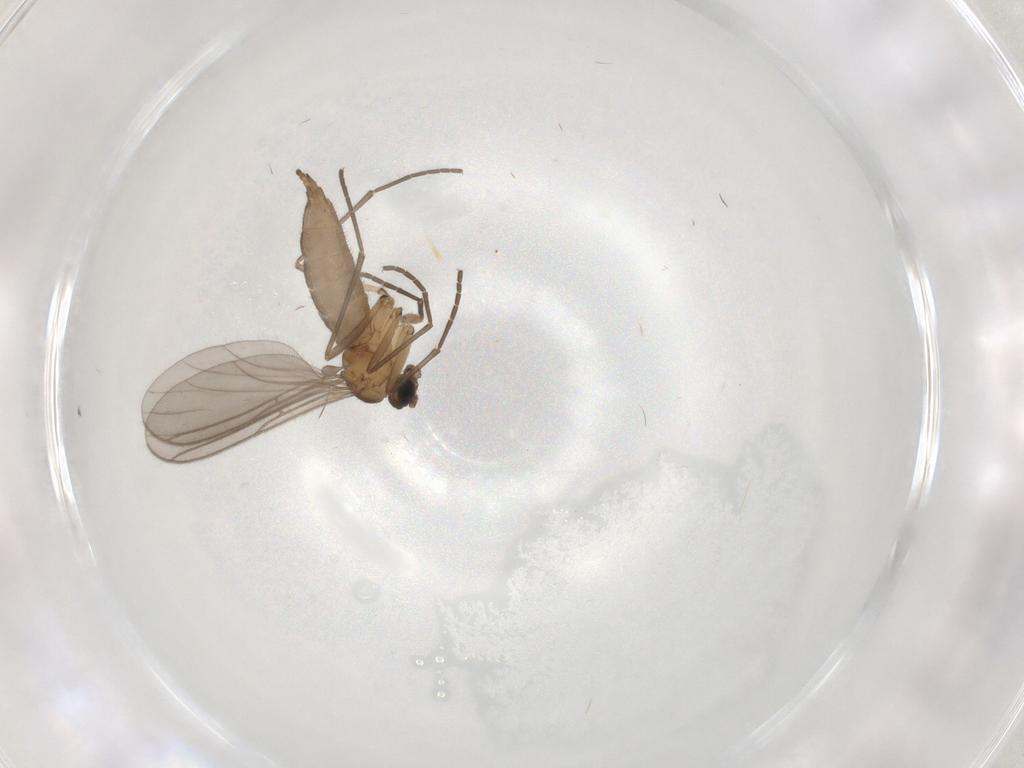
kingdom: Animalia
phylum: Arthropoda
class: Insecta
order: Diptera
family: Sciaridae
